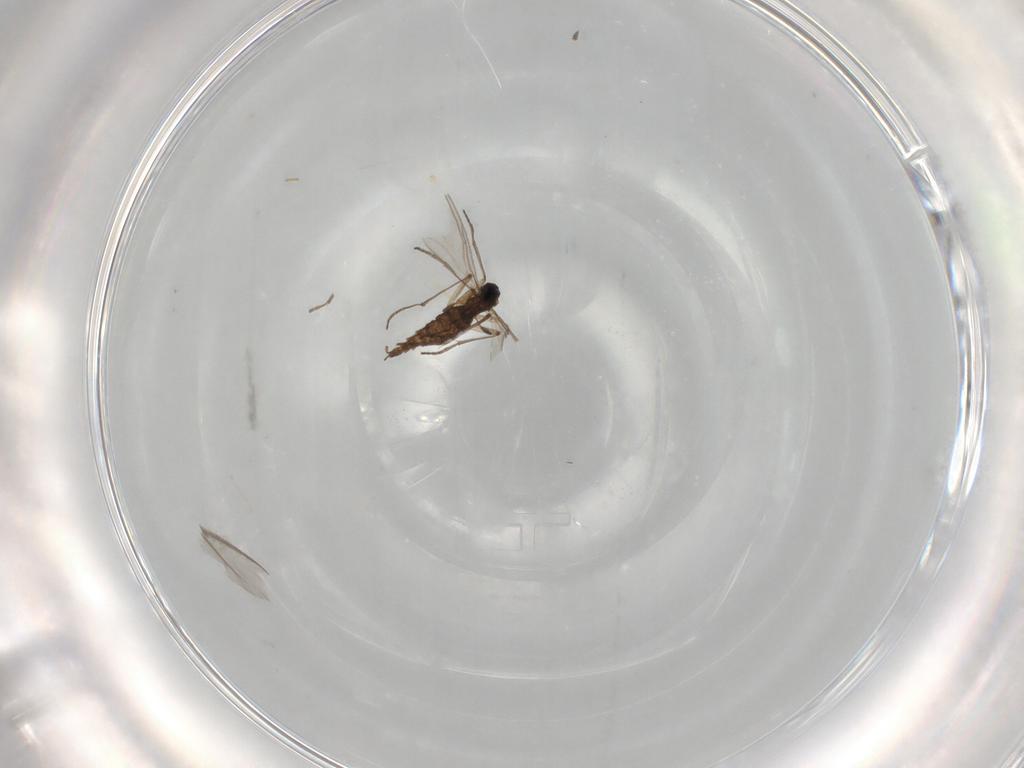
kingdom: Animalia
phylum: Arthropoda
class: Insecta
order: Diptera
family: Sciaridae
